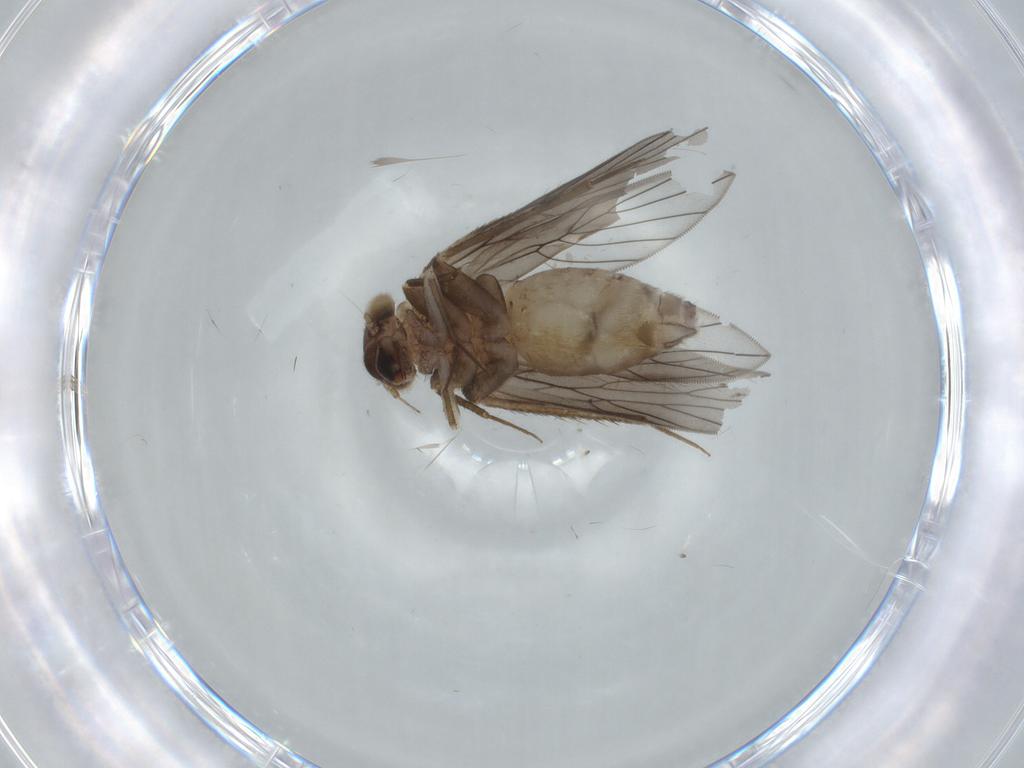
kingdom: Animalia
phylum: Arthropoda
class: Insecta
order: Psocodea
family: Lepidopsocidae
